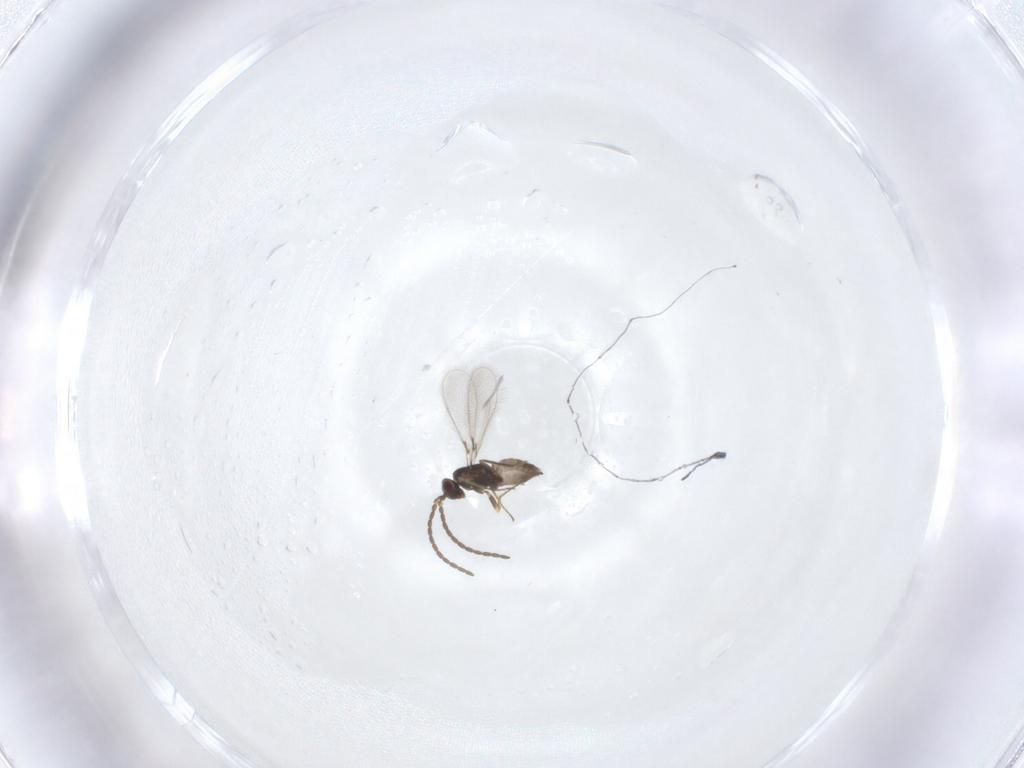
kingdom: Animalia
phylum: Arthropoda
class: Insecta
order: Hymenoptera
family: Mymaridae
